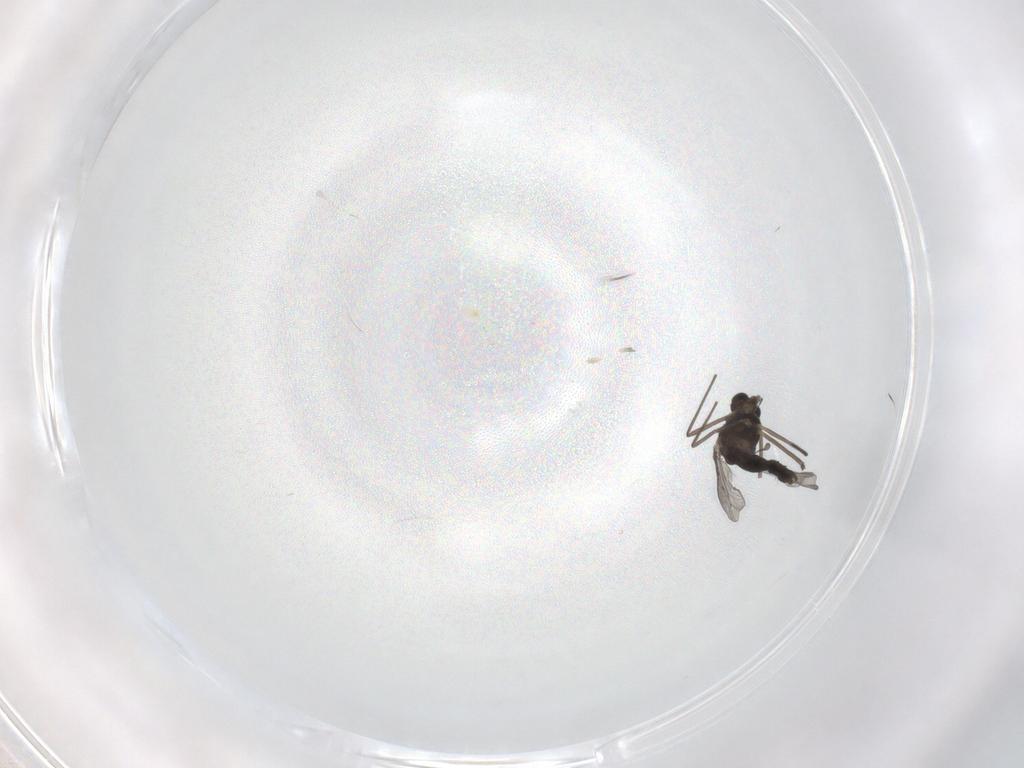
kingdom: Animalia
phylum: Arthropoda
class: Insecta
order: Diptera
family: Chironomidae
